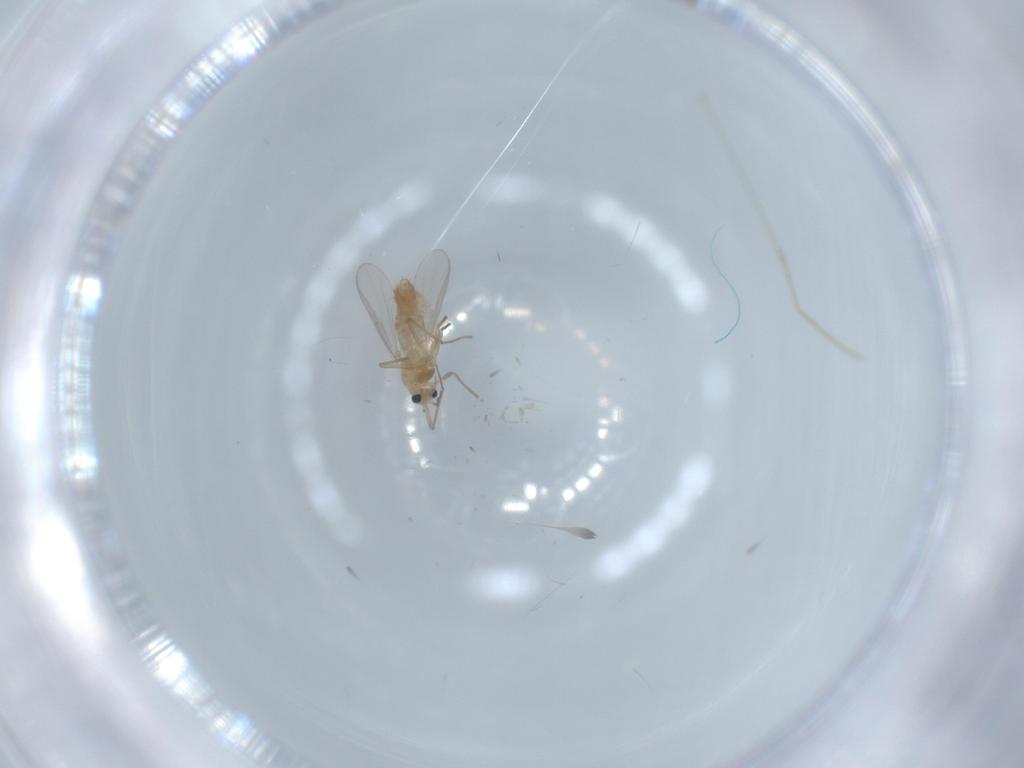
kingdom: Animalia
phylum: Arthropoda
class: Insecta
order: Diptera
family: Cecidomyiidae
